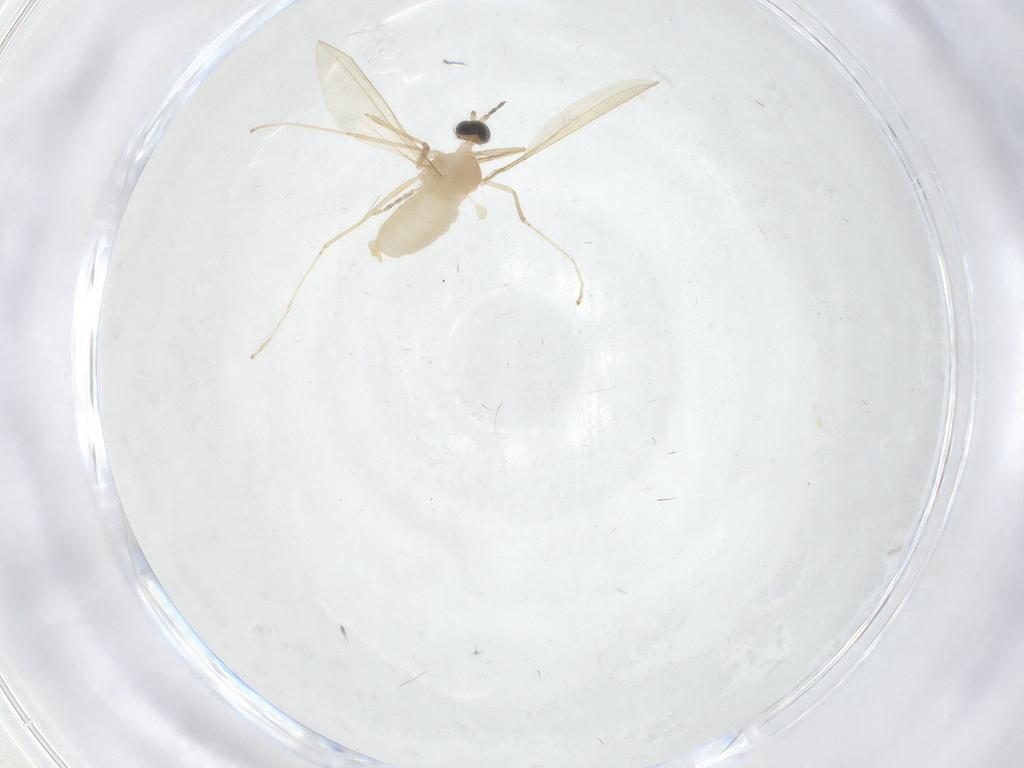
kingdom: Animalia
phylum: Arthropoda
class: Insecta
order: Diptera
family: Cecidomyiidae
